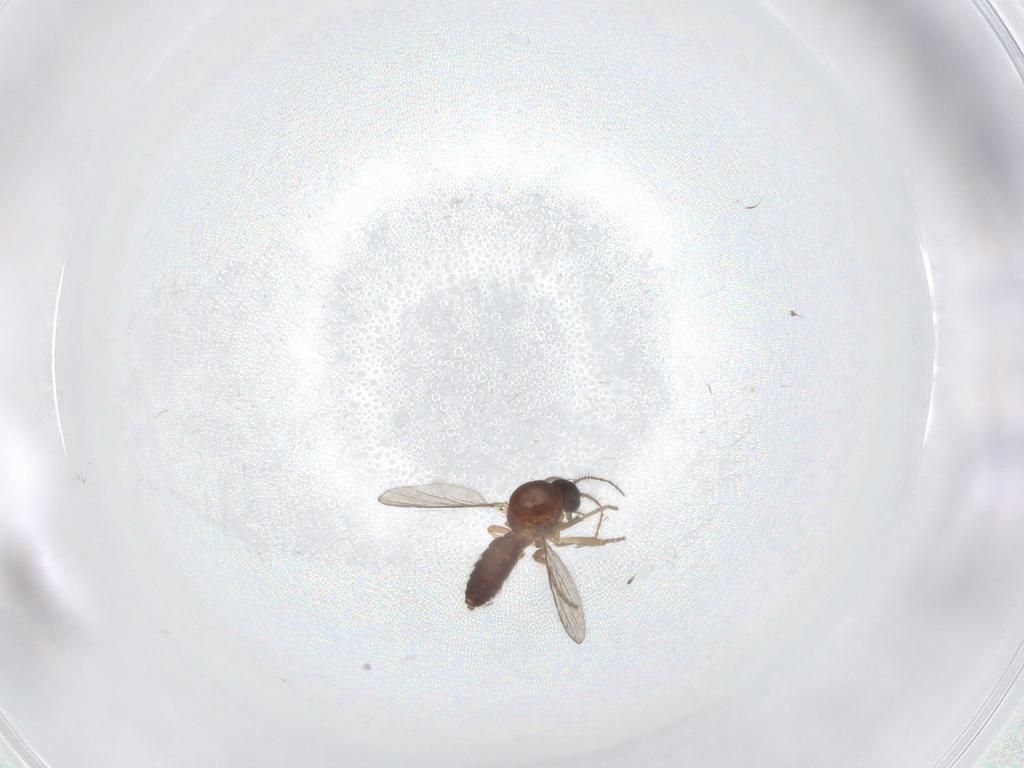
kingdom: Animalia
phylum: Arthropoda
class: Insecta
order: Diptera
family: Ceratopogonidae
